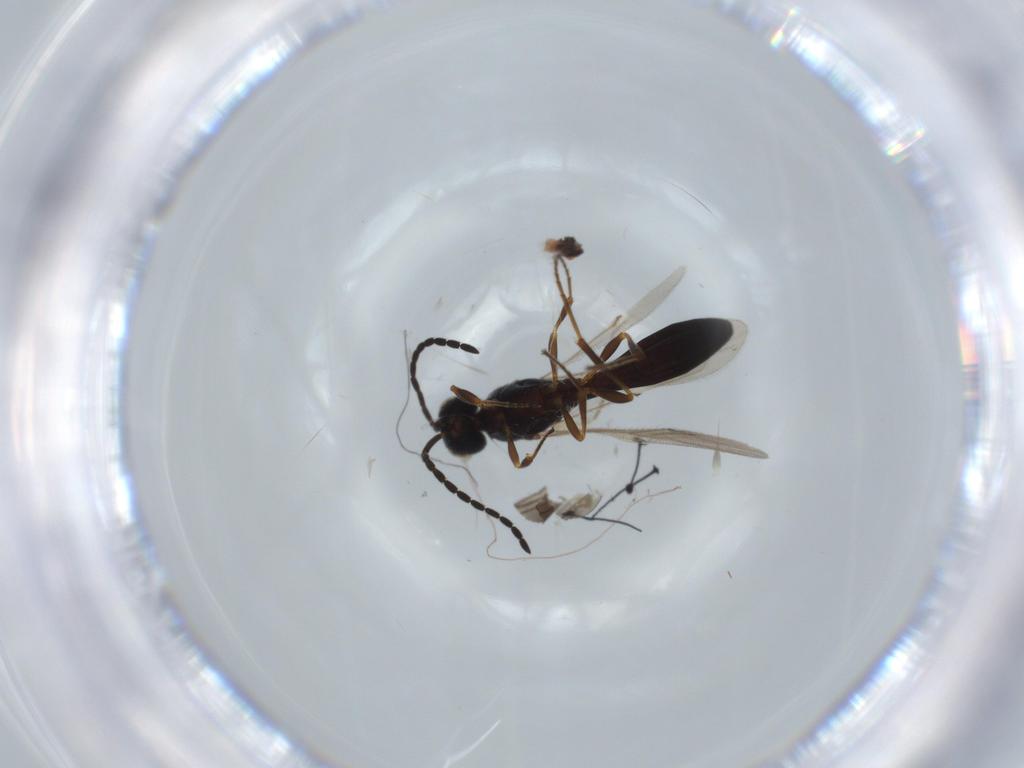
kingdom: Animalia
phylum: Arthropoda
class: Insecta
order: Hymenoptera
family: Scelionidae
